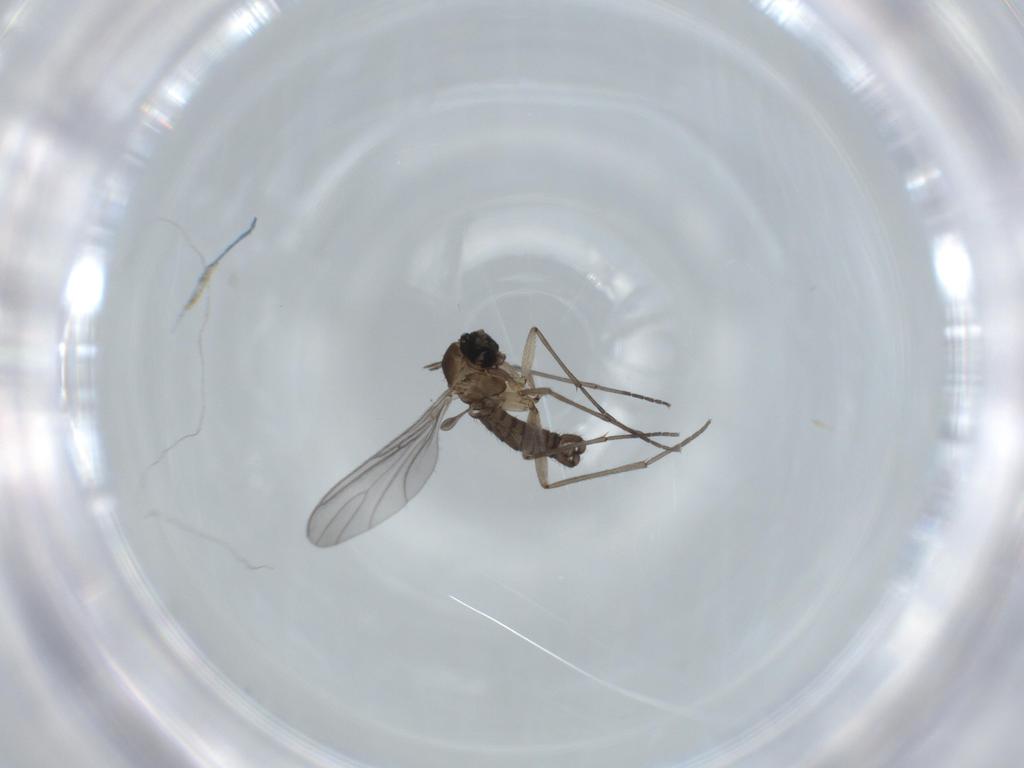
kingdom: Animalia
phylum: Arthropoda
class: Insecta
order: Diptera
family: Sciaridae
